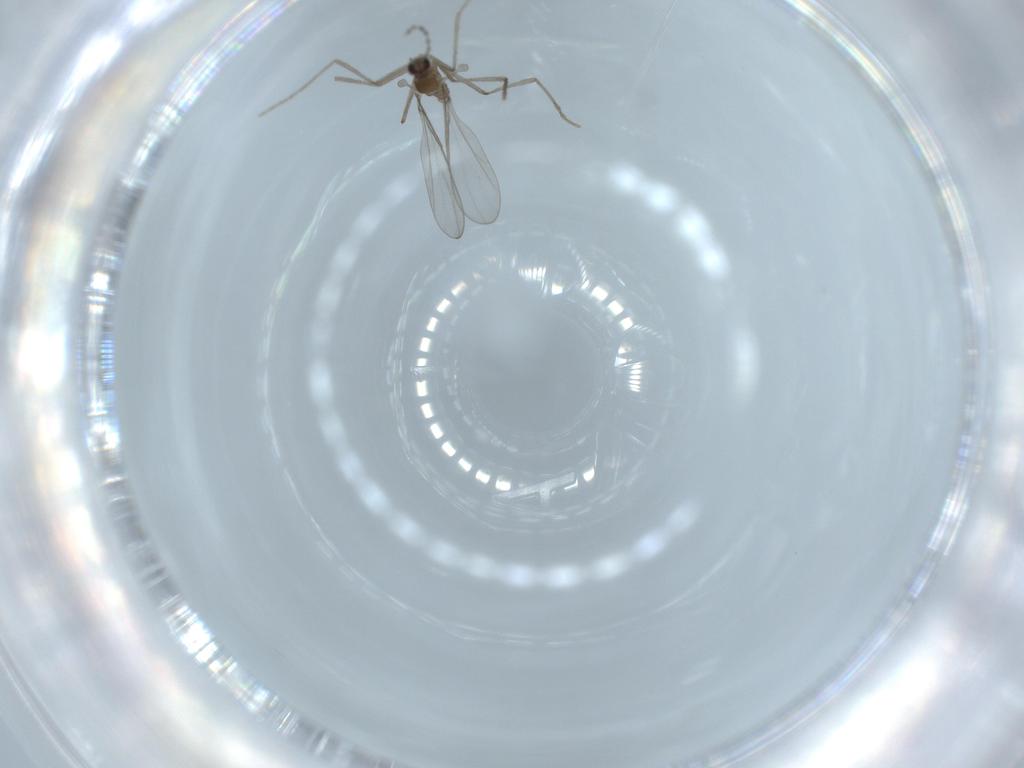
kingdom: Animalia
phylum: Arthropoda
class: Insecta
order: Diptera
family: Cecidomyiidae
